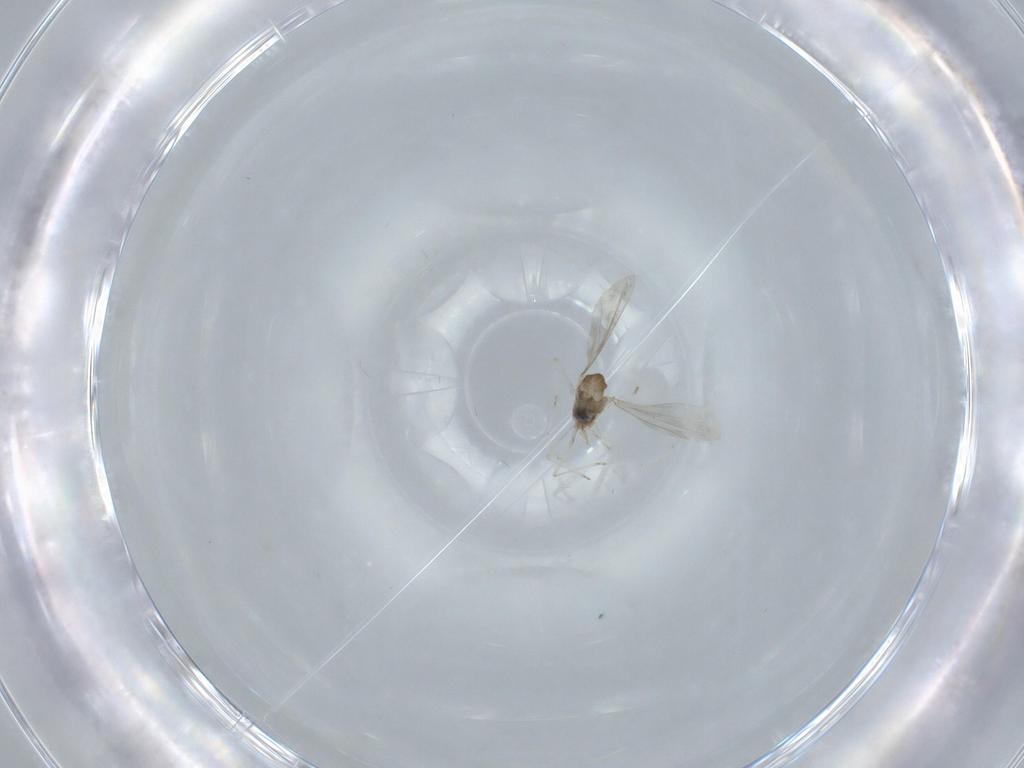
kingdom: Animalia
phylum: Arthropoda
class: Insecta
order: Diptera
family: Cecidomyiidae
